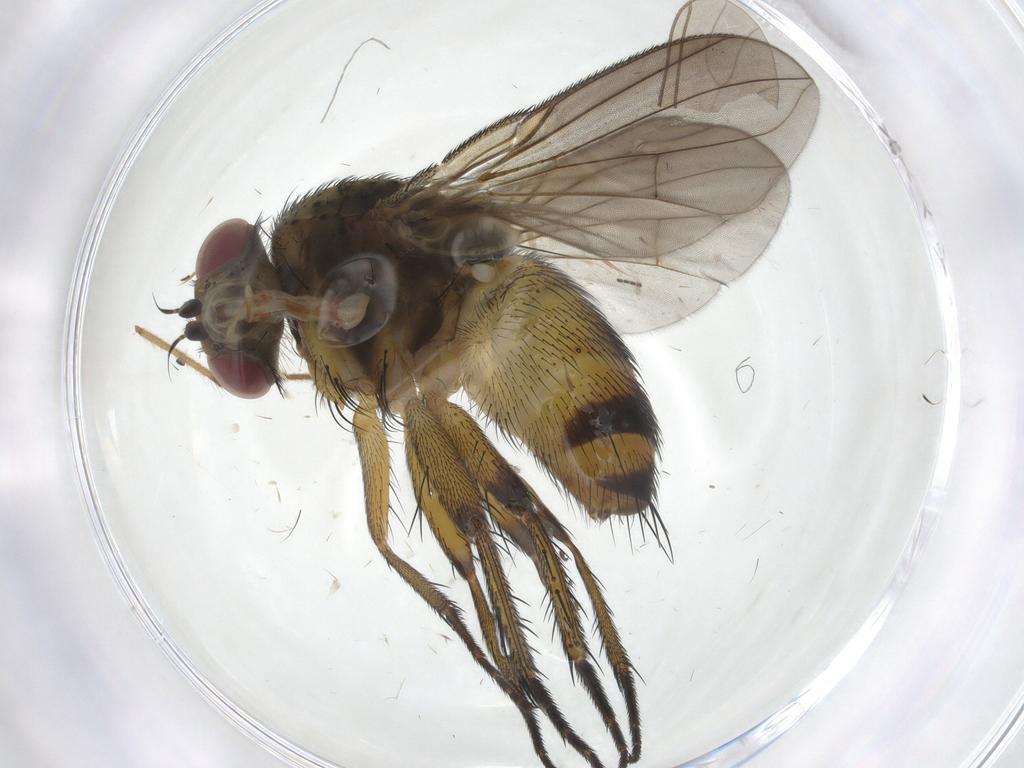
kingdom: Animalia
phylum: Arthropoda
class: Insecta
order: Diptera
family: Tachinidae
